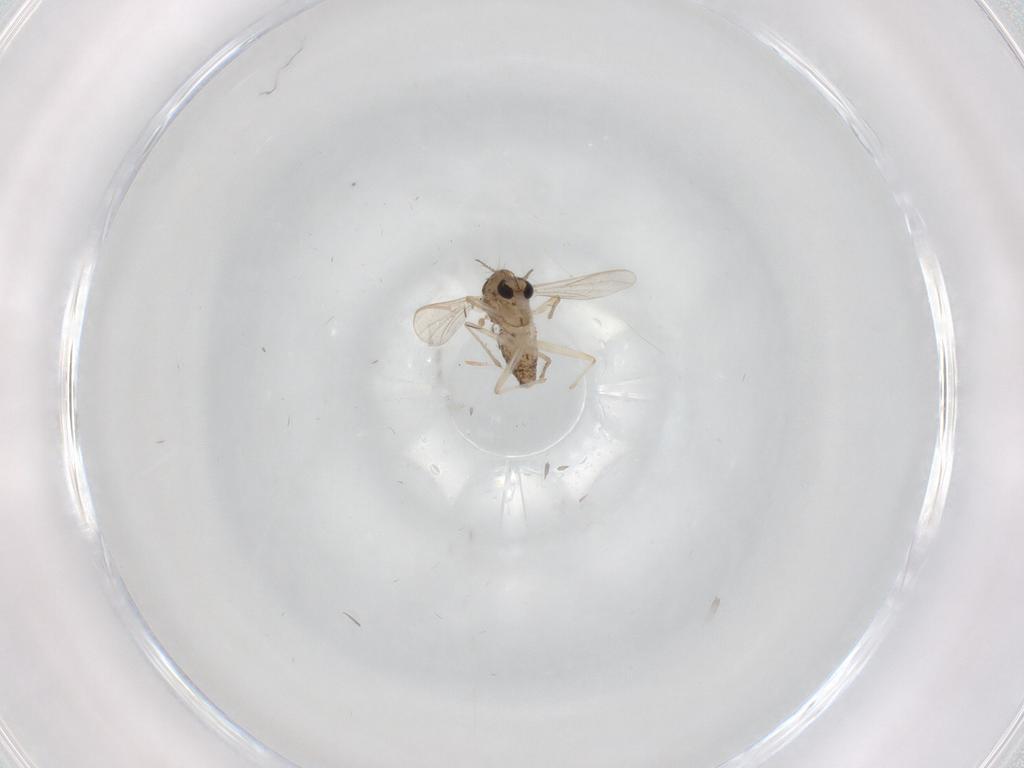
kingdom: Animalia
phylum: Arthropoda
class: Insecta
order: Diptera
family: Chironomidae
